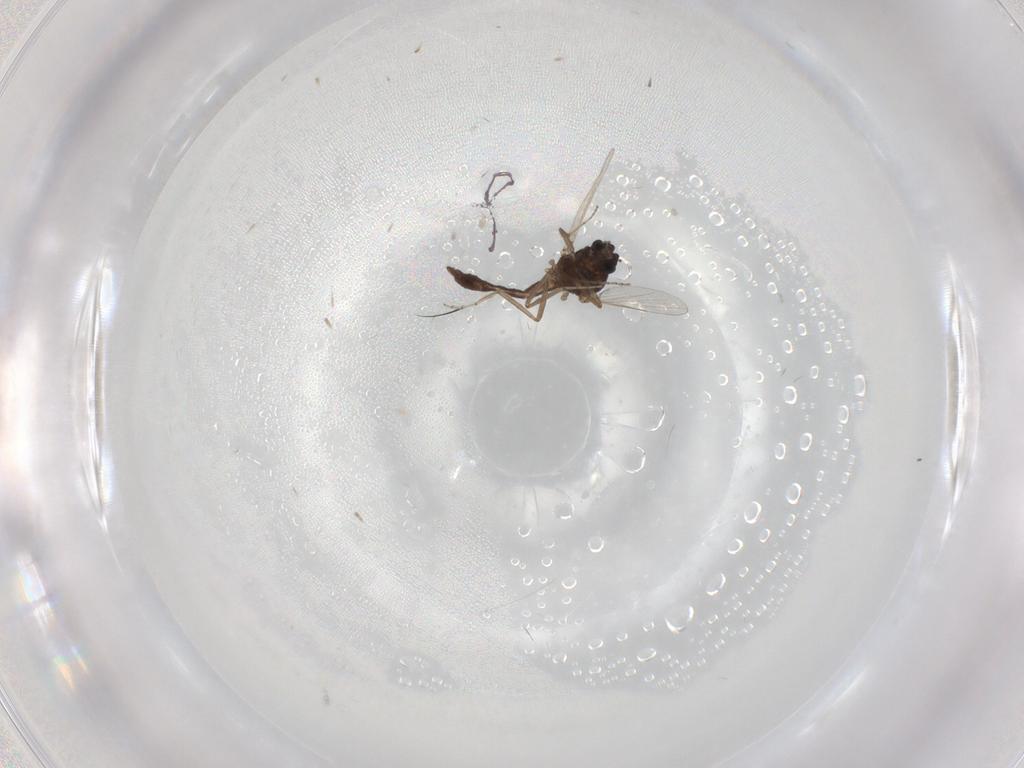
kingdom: Animalia
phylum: Arthropoda
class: Insecta
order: Diptera
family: Ceratopogonidae
